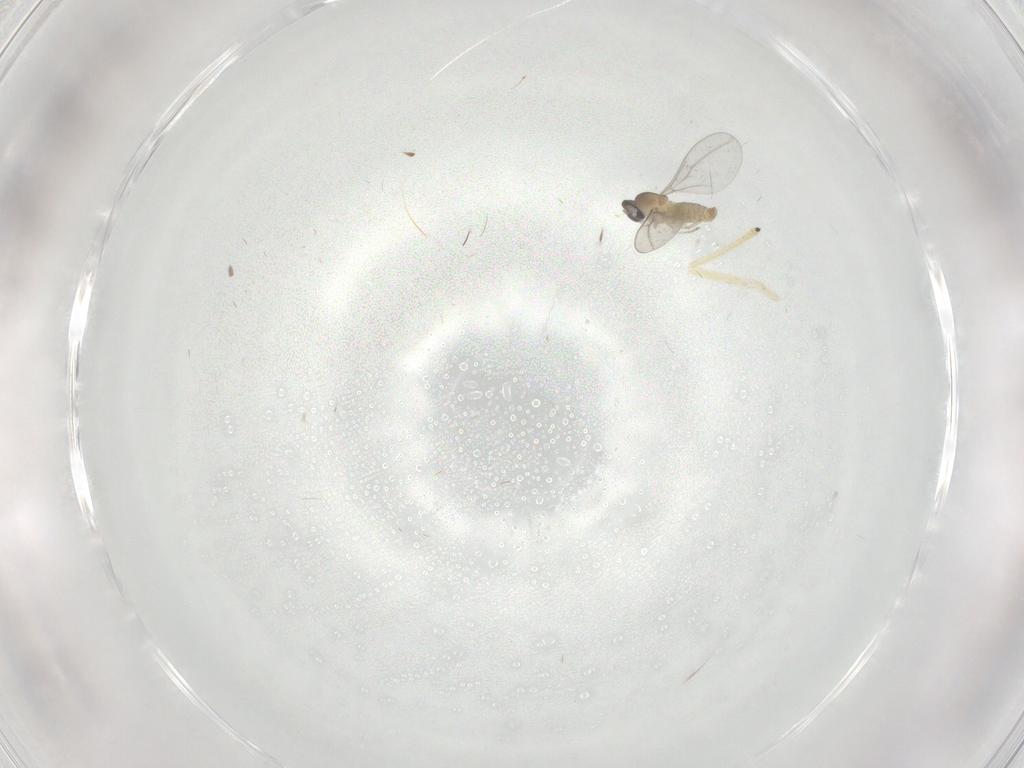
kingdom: Animalia
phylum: Arthropoda
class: Insecta
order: Diptera
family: Chironomidae
